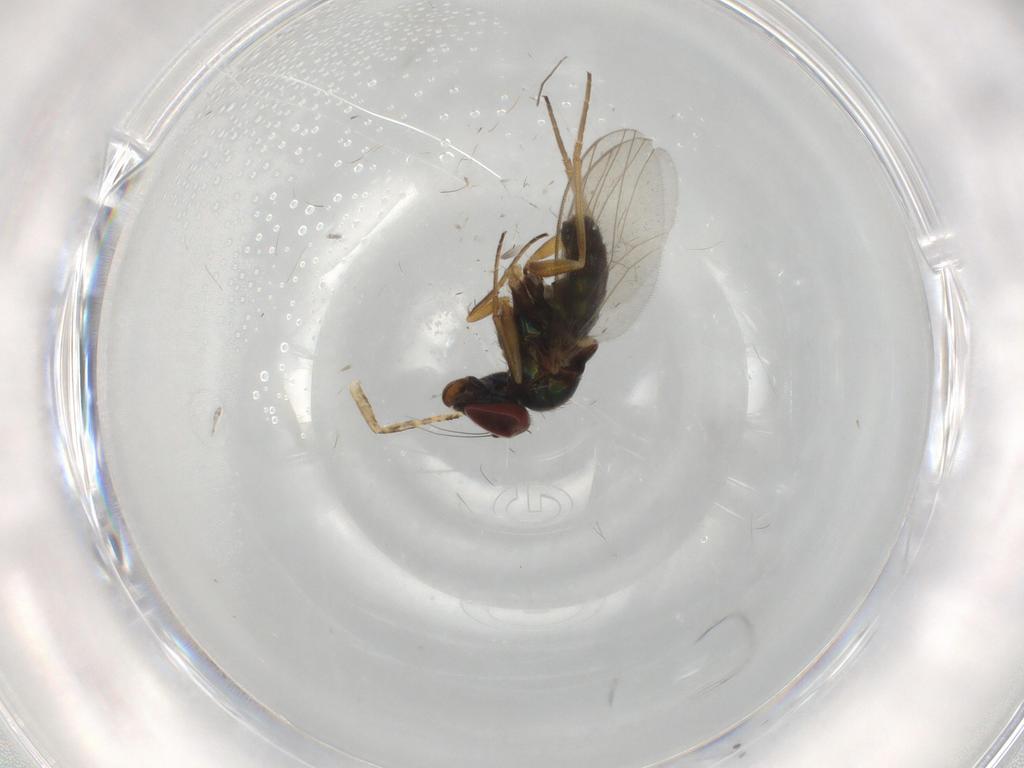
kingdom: Animalia
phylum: Arthropoda
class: Insecta
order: Diptera
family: Dolichopodidae
